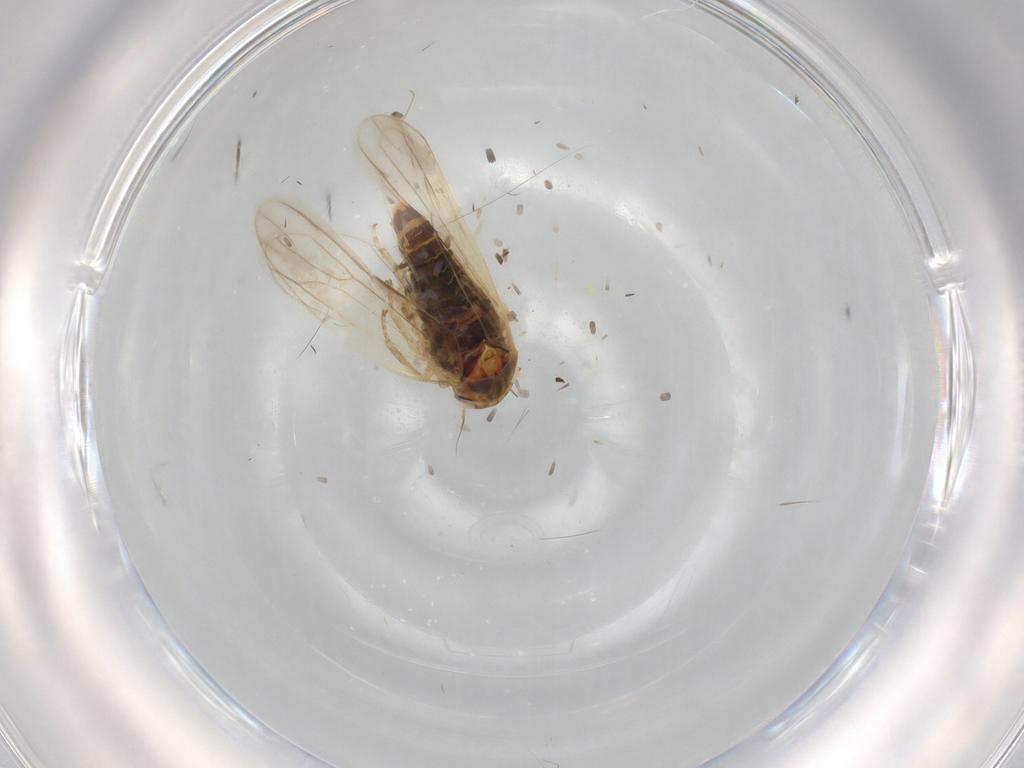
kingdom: Animalia
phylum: Arthropoda
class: Insecta
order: Hemiptera
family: Cicadellidae
